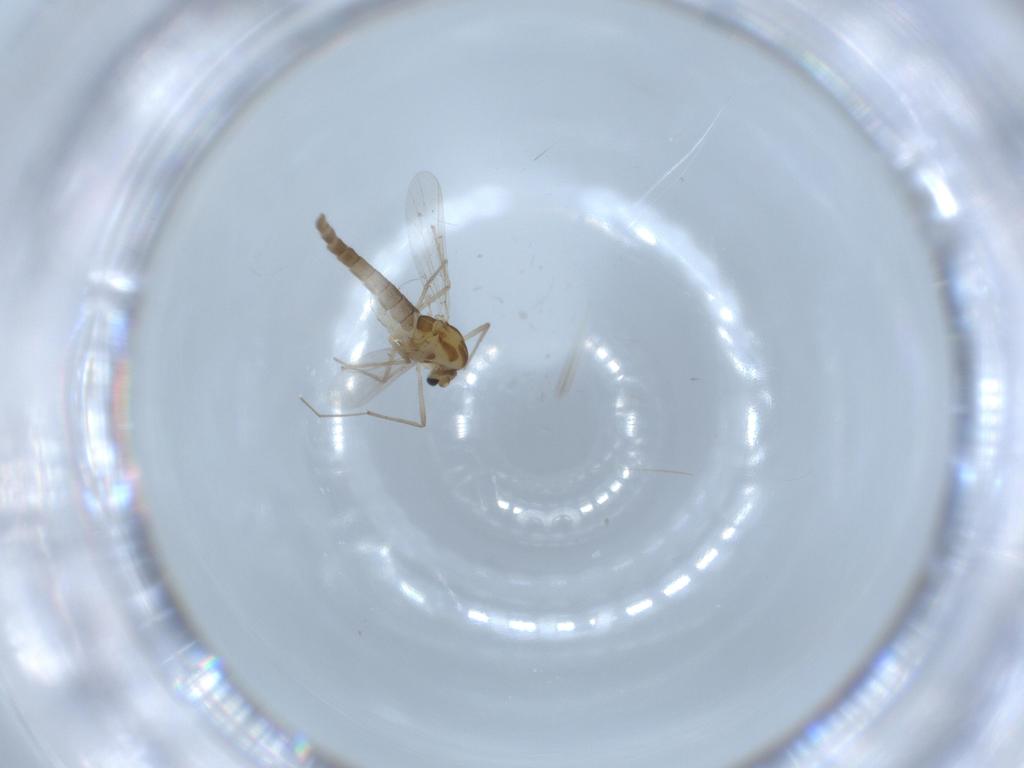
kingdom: Animalia
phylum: Arthropoda
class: Insecta
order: Diptera
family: Chironomidae
